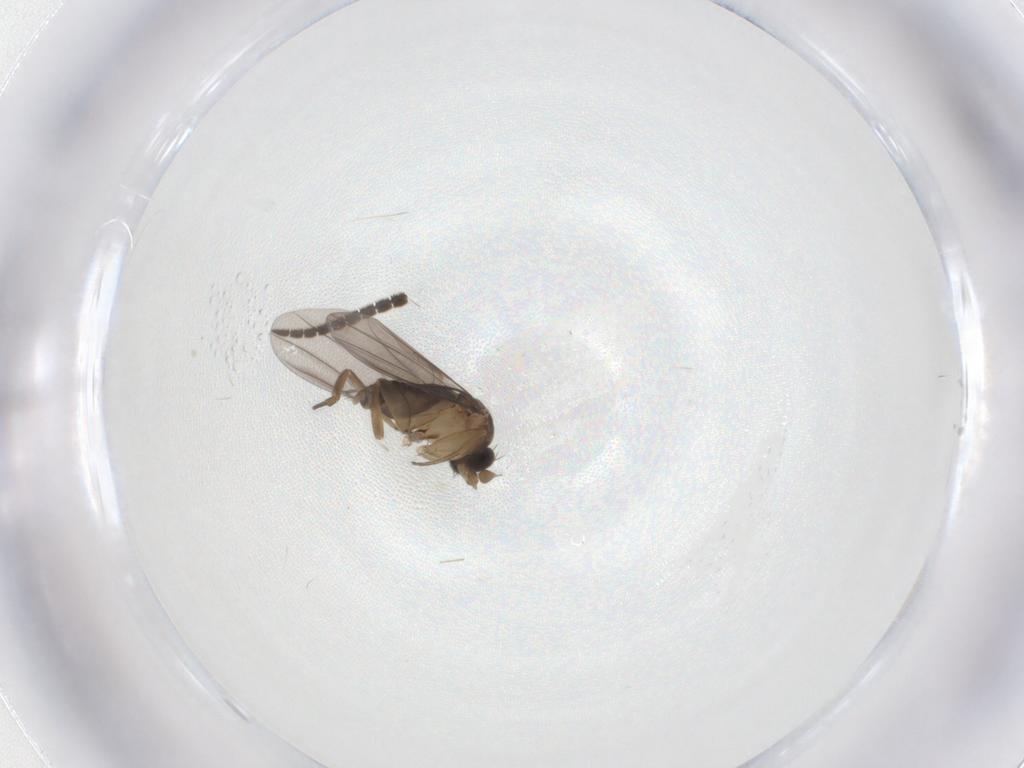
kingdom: Animalia
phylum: Arthropoda
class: Insecta
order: Diptera
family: Phoridae
